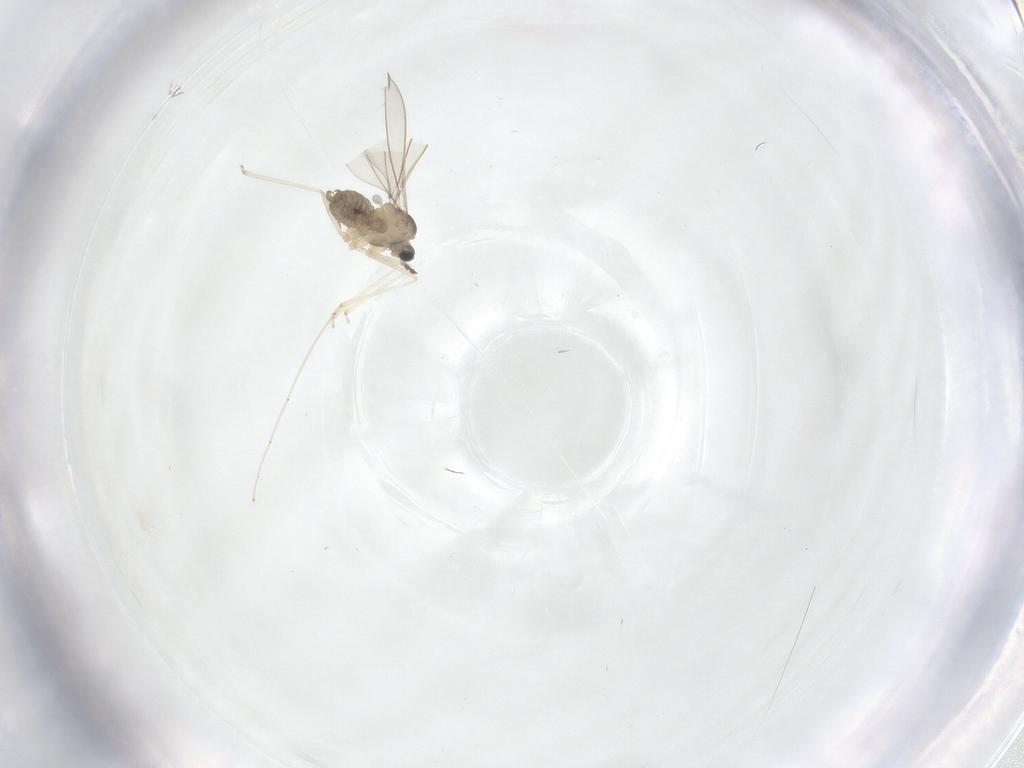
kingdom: Animalia
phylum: Arthropoda
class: Insecta
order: Diptera
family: Cecidomyiidae
